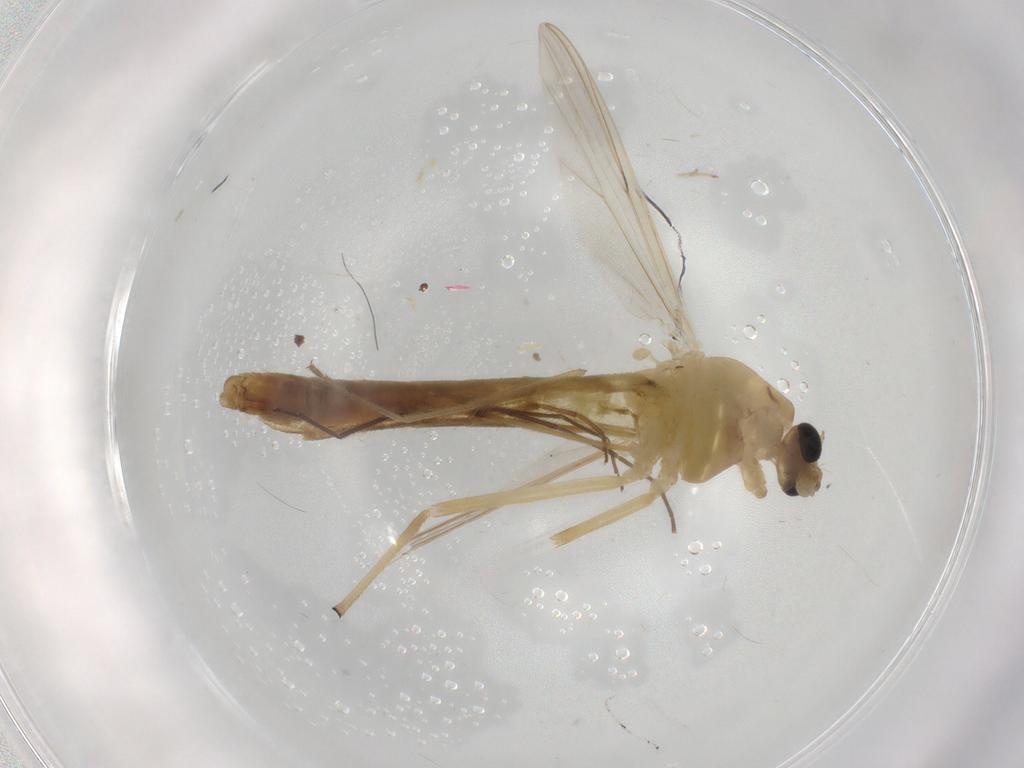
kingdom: Animalia
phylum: Arthropoda
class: Insecta
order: Diptera
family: Chironomidae
